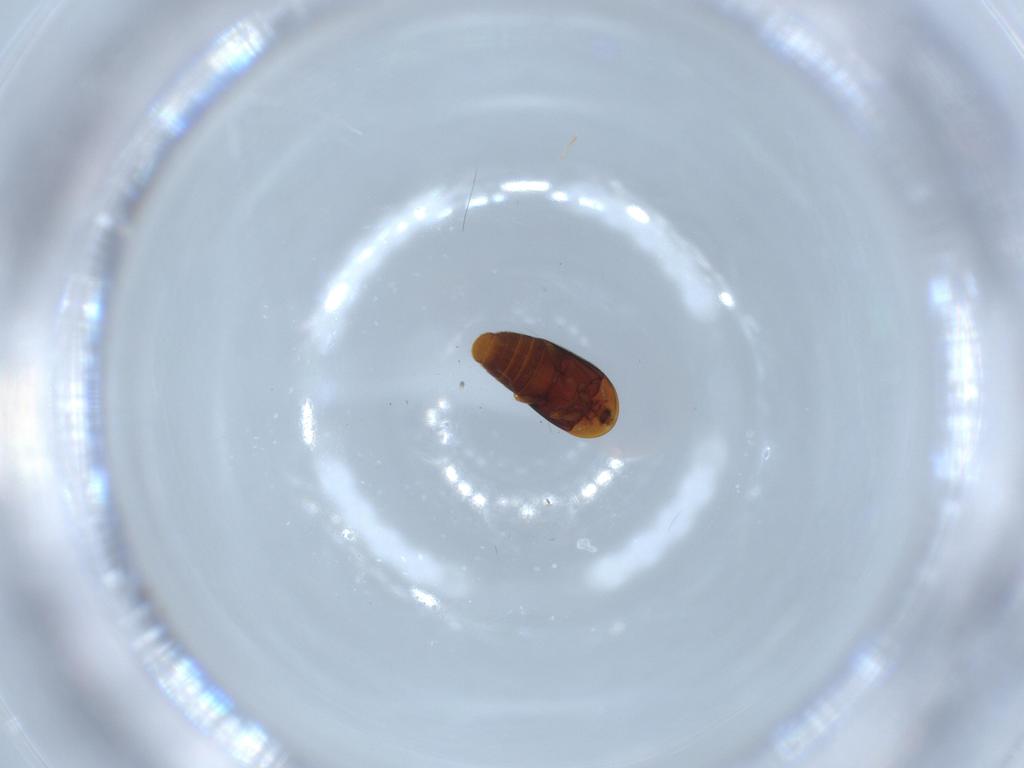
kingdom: Animalia
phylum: Arthropoda
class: Insecta
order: Coleoptera
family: Corylophidae
